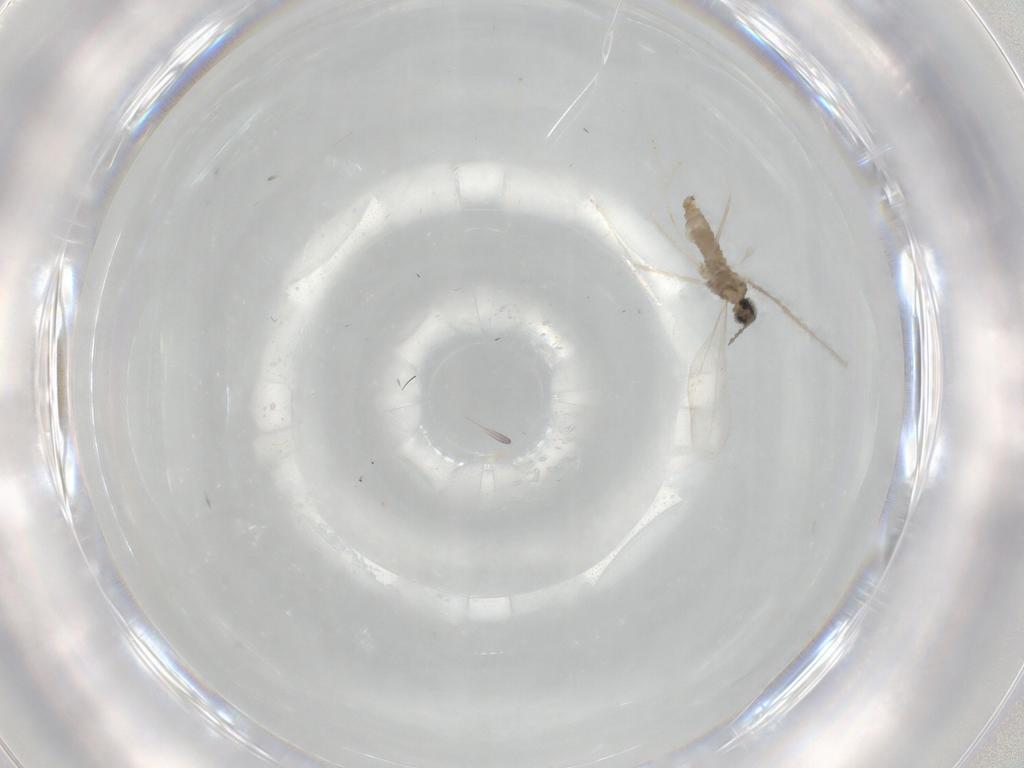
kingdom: Animalia
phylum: Arthropoda
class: Insecta
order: Diptera
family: Cecidomyiidae
